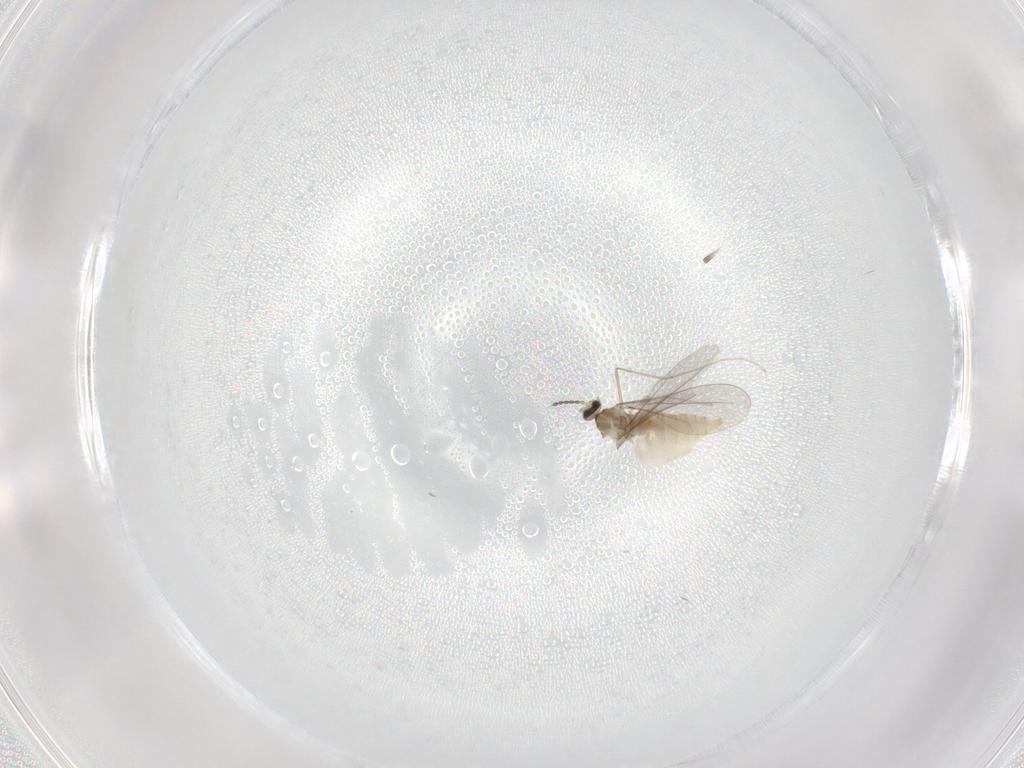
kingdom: Animalia
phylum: Arthropoda
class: Insecta
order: Diptera
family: Cecidomyiidae
